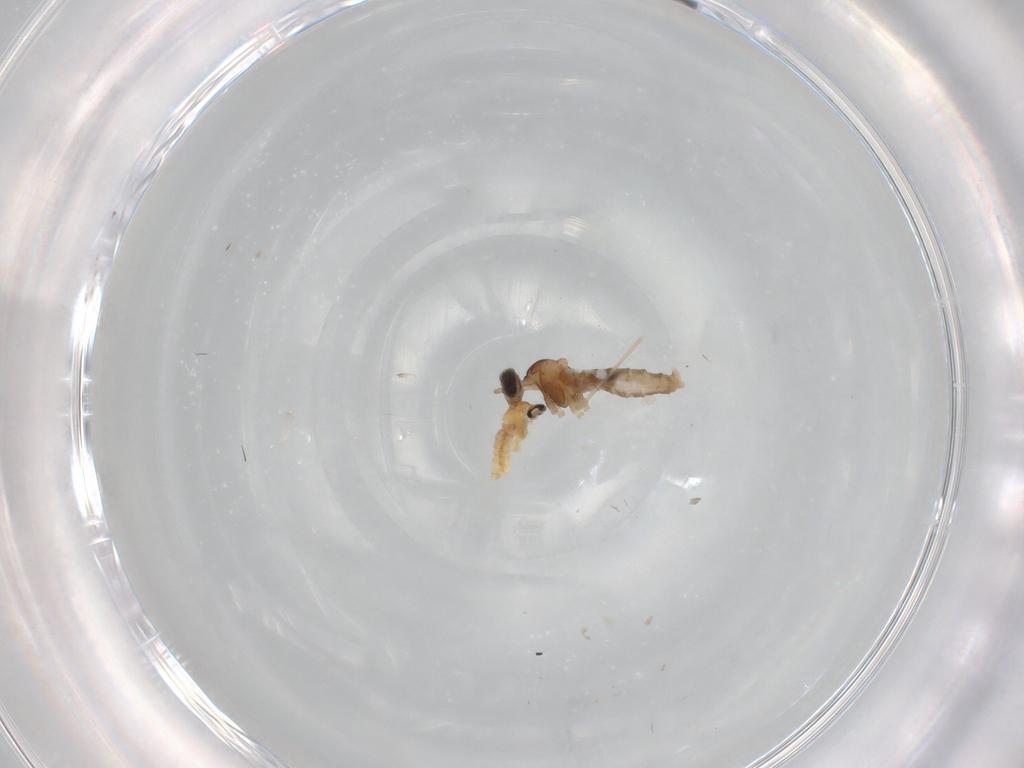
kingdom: Animalia
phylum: Arthropoda
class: Insecta
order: Diptera
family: Cecidomyiidae
